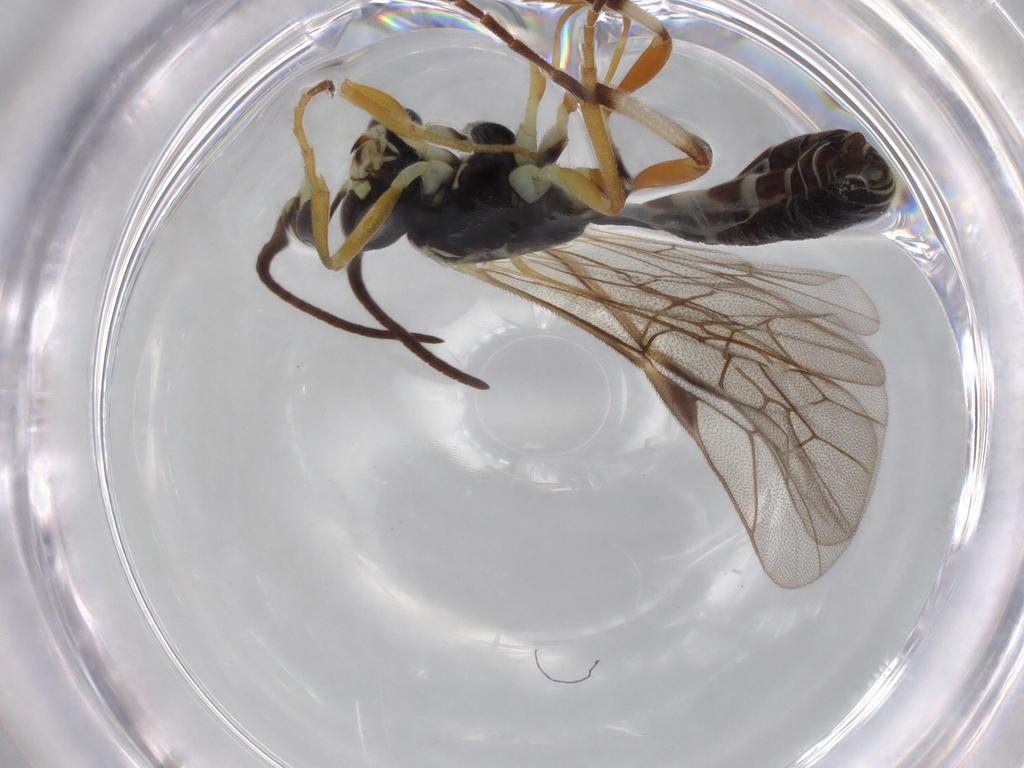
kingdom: Animalia
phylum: Arthropoda
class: Insecta
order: Hymenoptera
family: Ichneumonidae
